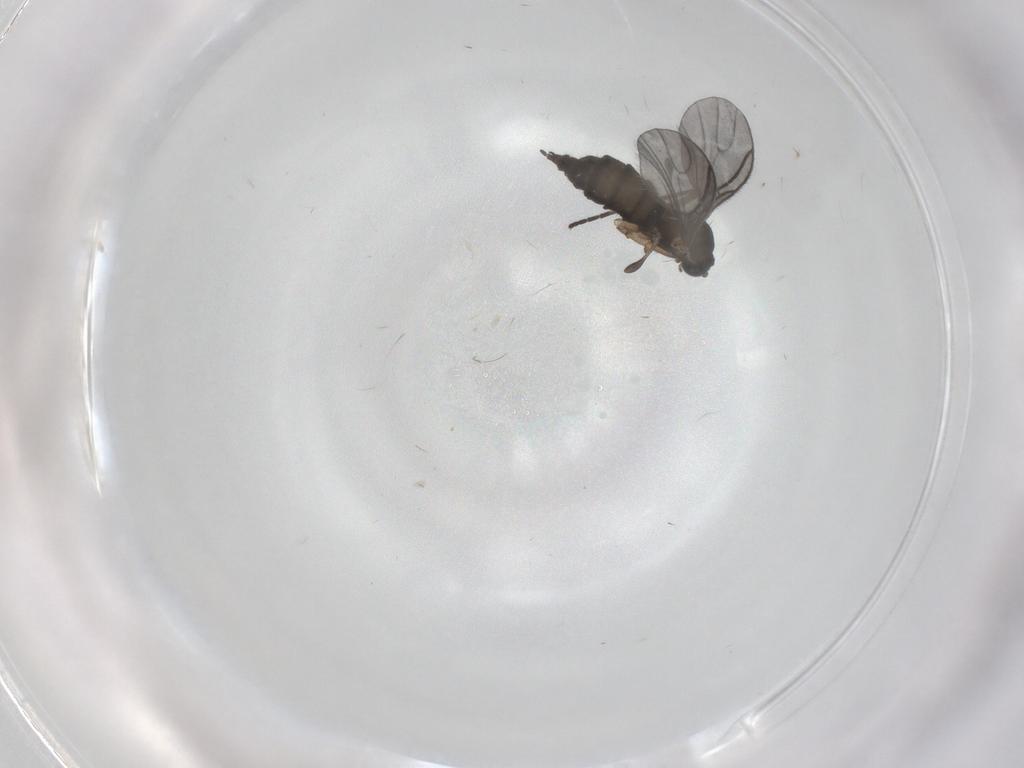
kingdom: Animalia
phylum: Arthropoda
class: Insecta
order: Diptera
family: Sciaridae
